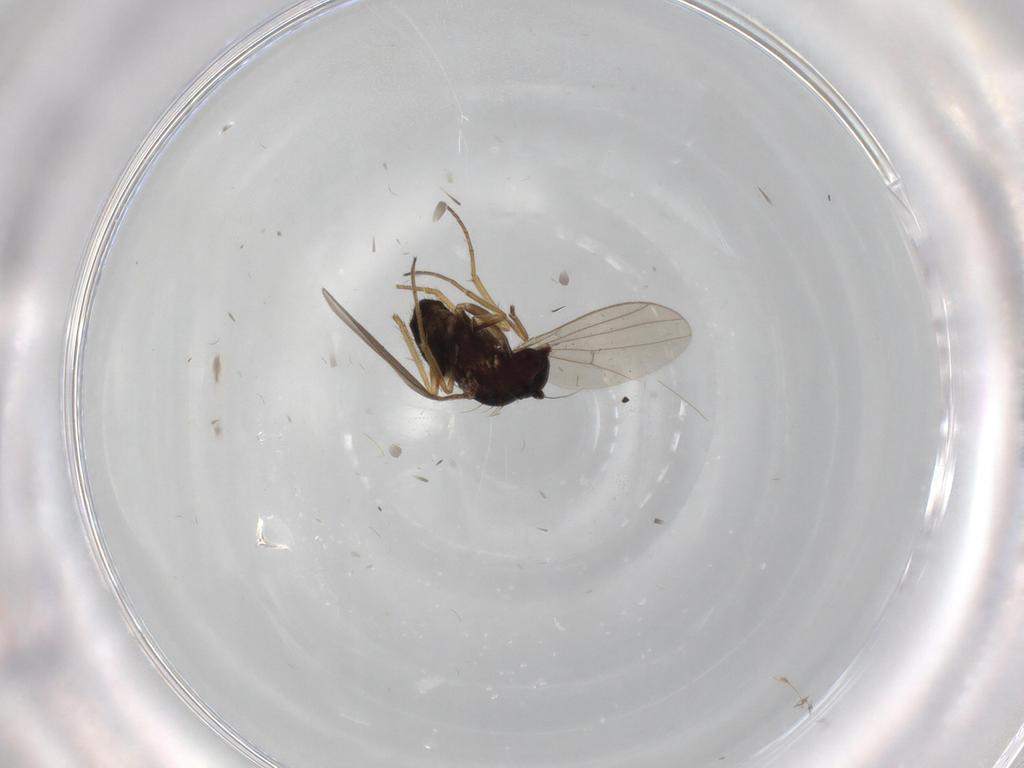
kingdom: Animalia
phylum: Arthropoda
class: Insecta
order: Diptera
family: Cecidomyiidae
